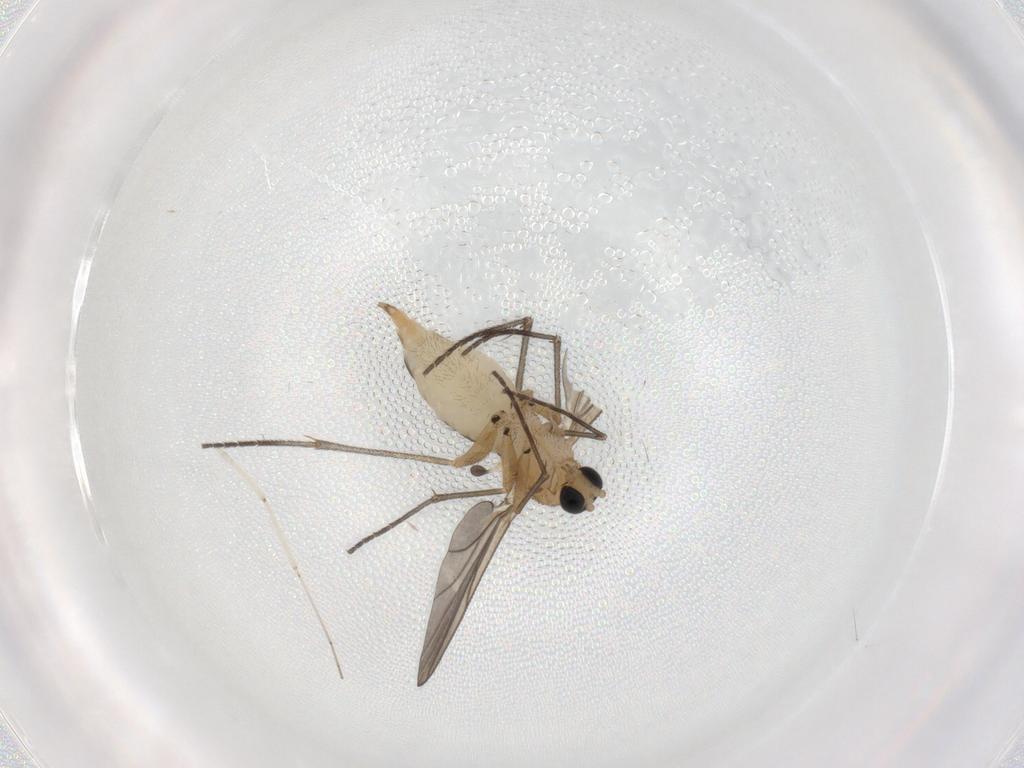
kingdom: Animalia
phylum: Arthropoda
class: Insecta
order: Diptera
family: Sciaridae
